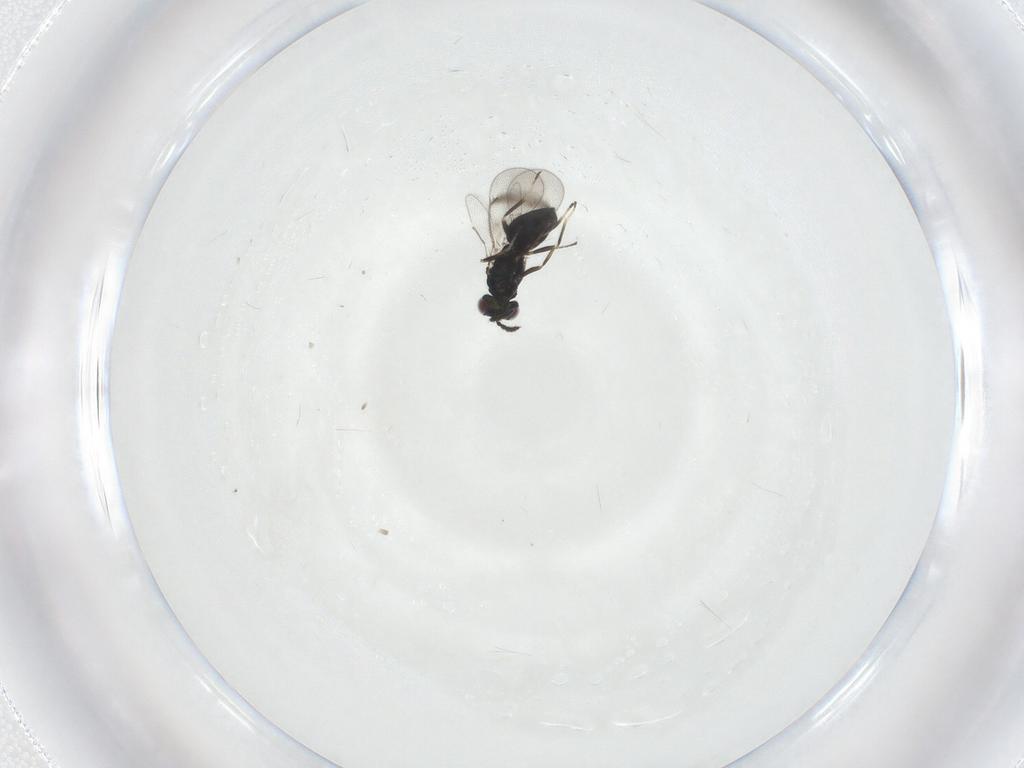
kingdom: Animalia
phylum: Arthropoda
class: Insecta
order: Hymenoptera
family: Eulophidae
